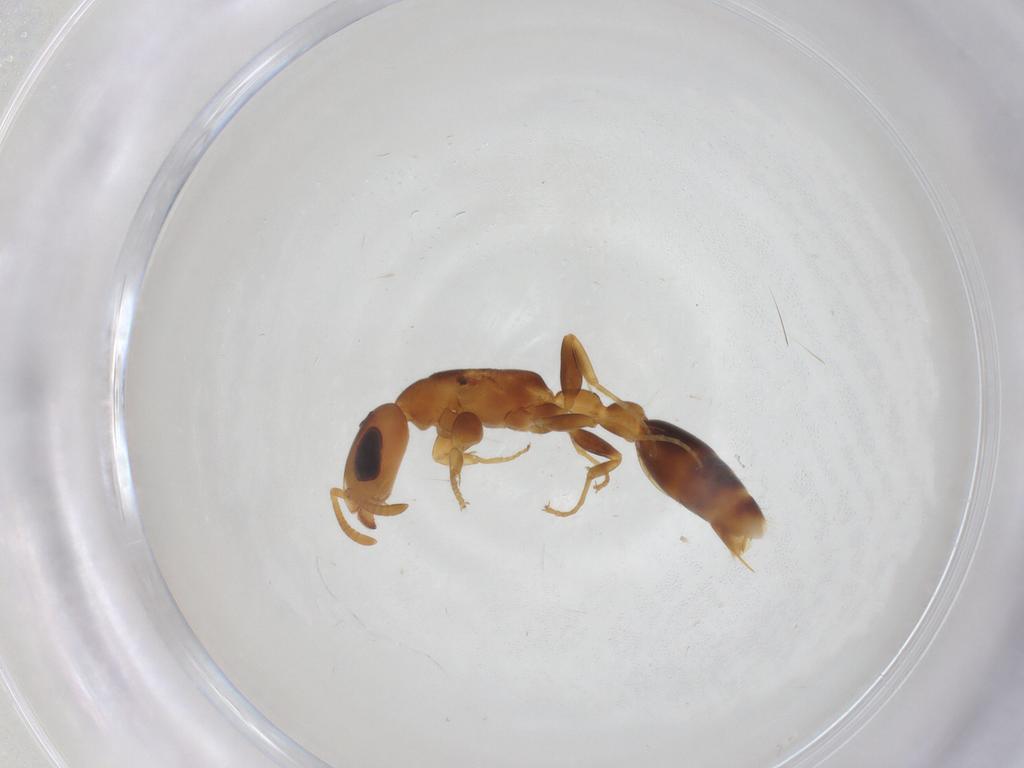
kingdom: Animalia
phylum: Arthropoda
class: Insecta
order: Hymenoptera
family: Formicidae
